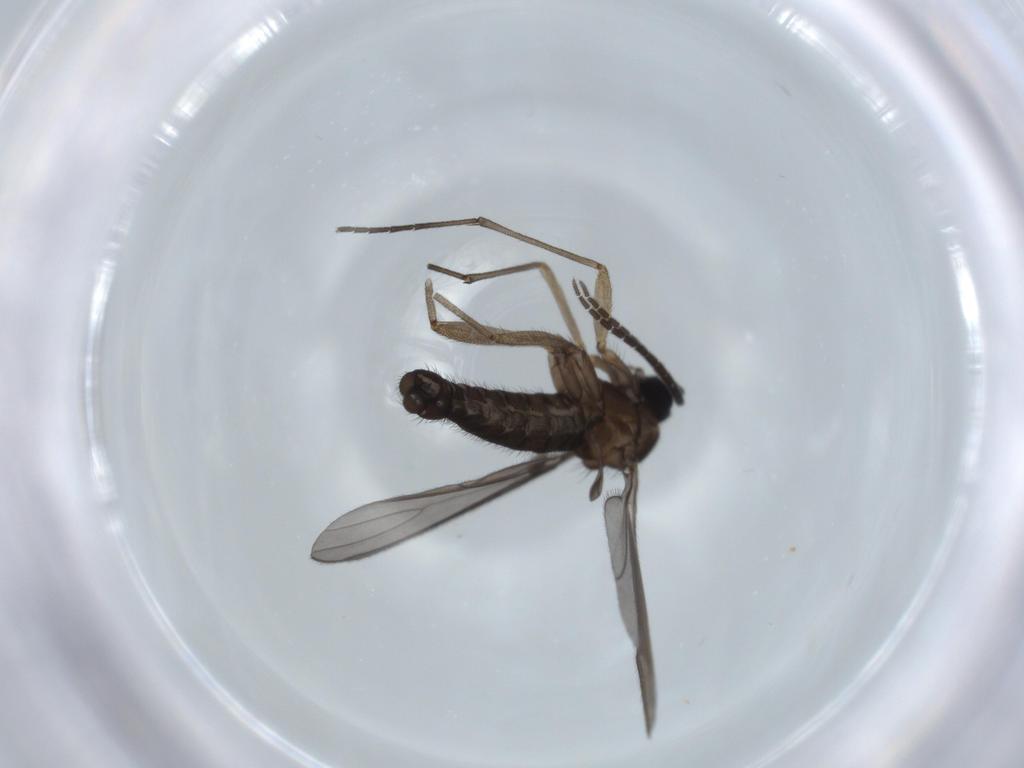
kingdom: Animalia
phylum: Arthropoda
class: Insecta
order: Diptera
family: Sciaridae
